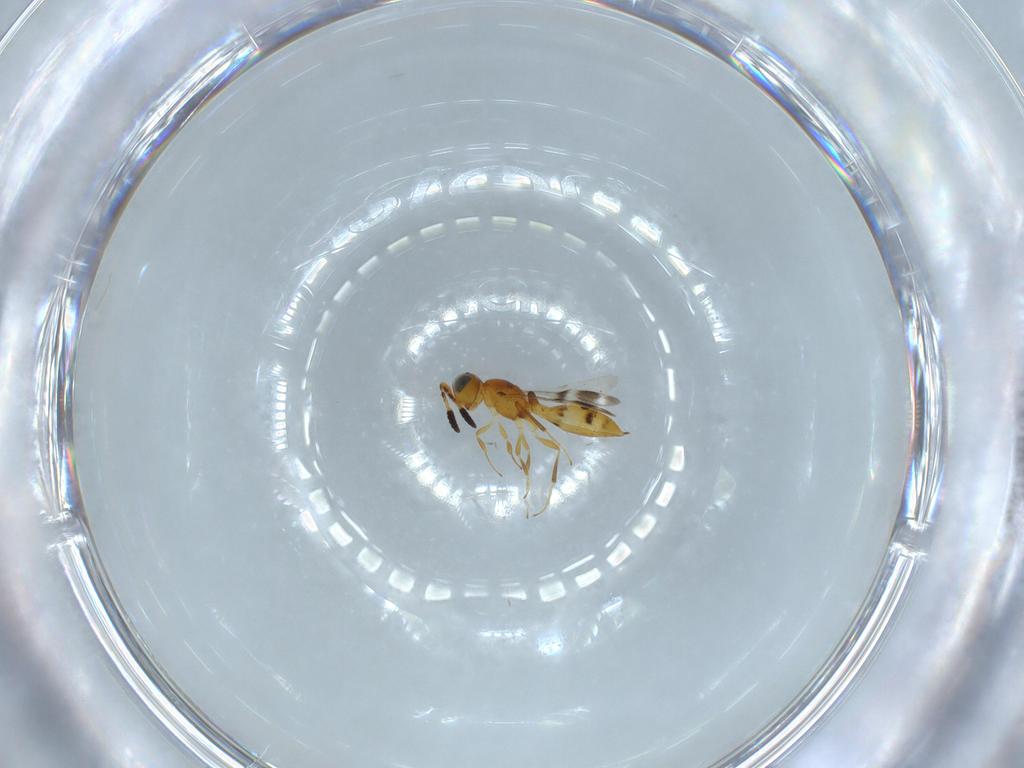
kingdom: Animalia
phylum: Arthropoda
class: Insecta
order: Hymenoptera
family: Scelionidae
